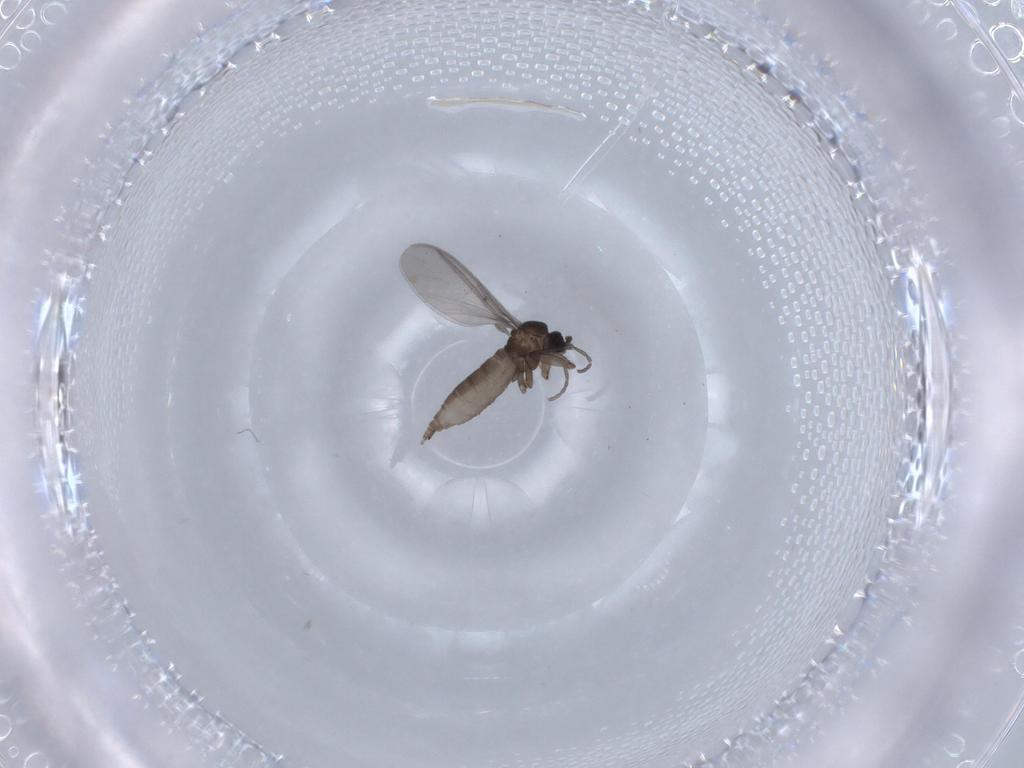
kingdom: Animalia
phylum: Arthropoda
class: Insecta
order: Diptera
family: Sciaridae
